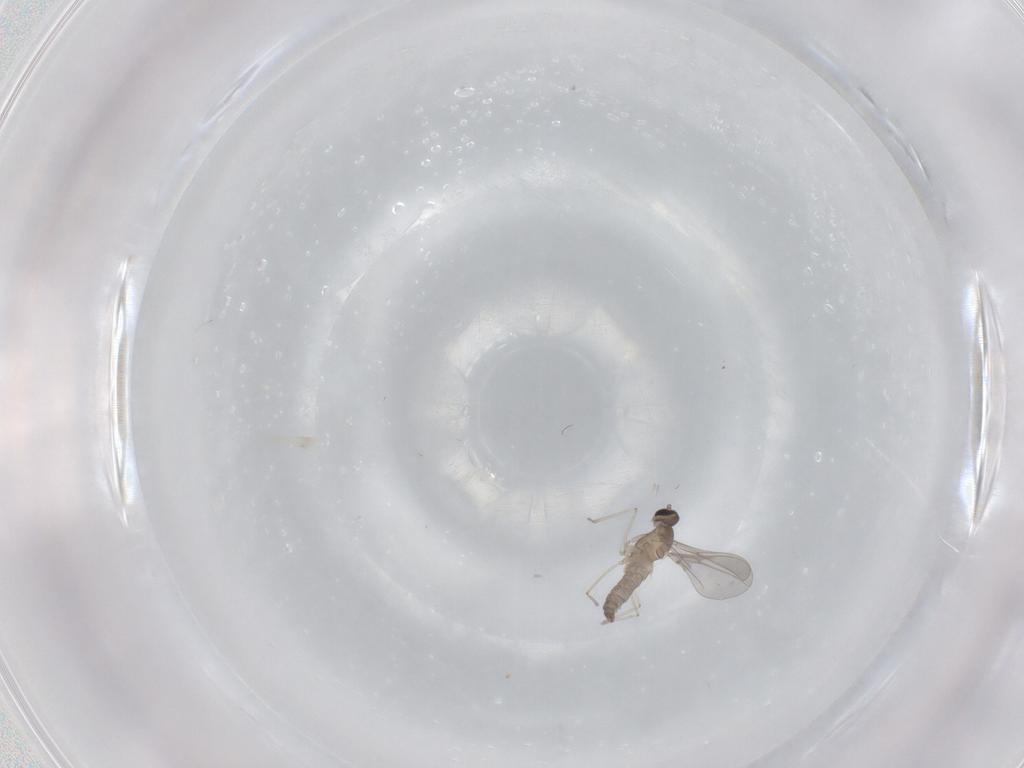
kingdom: Animalia
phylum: Arthropoda
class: Insecta
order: Diptera
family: Cecidomyiidae
